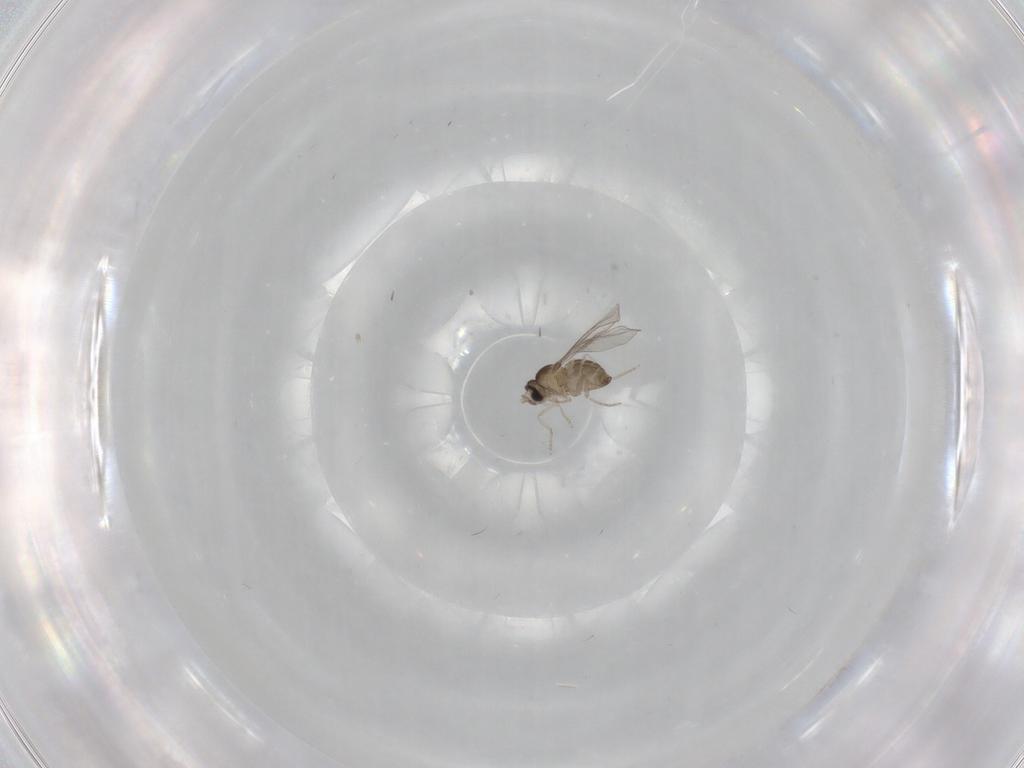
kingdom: Animalia
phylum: Arthropoda
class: Insecta
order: Diptera
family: Cecidomyiidae
